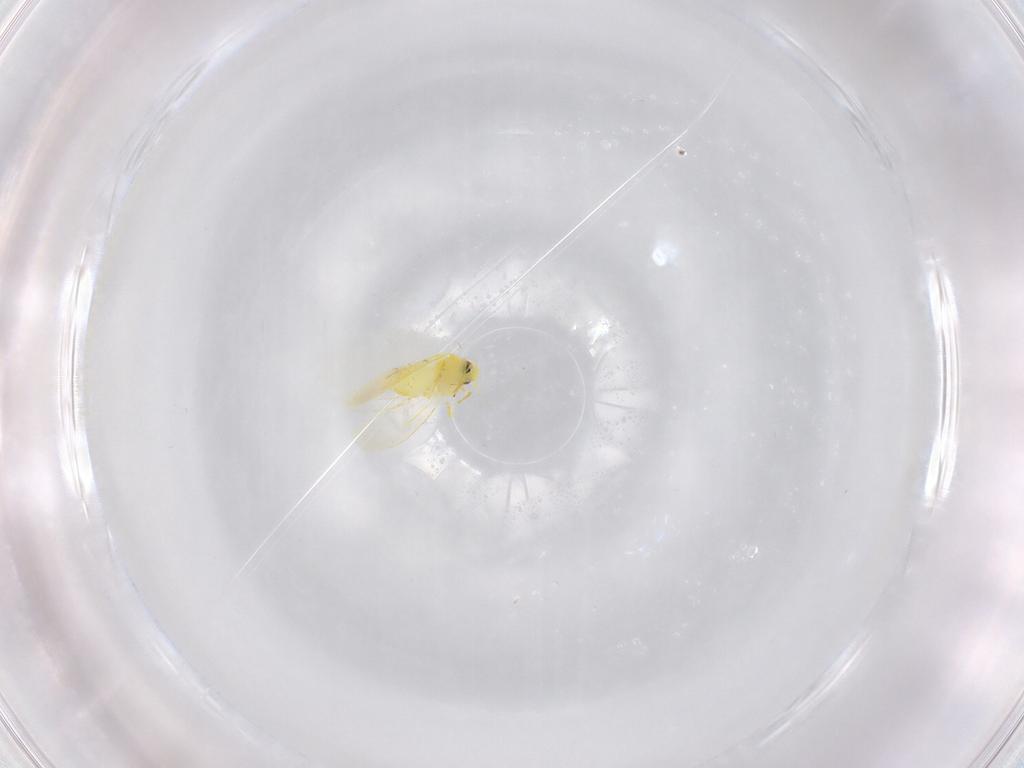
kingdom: Animalia
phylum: Arthropoda
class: Insecta
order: Hemiptera
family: Aleyrodidae
